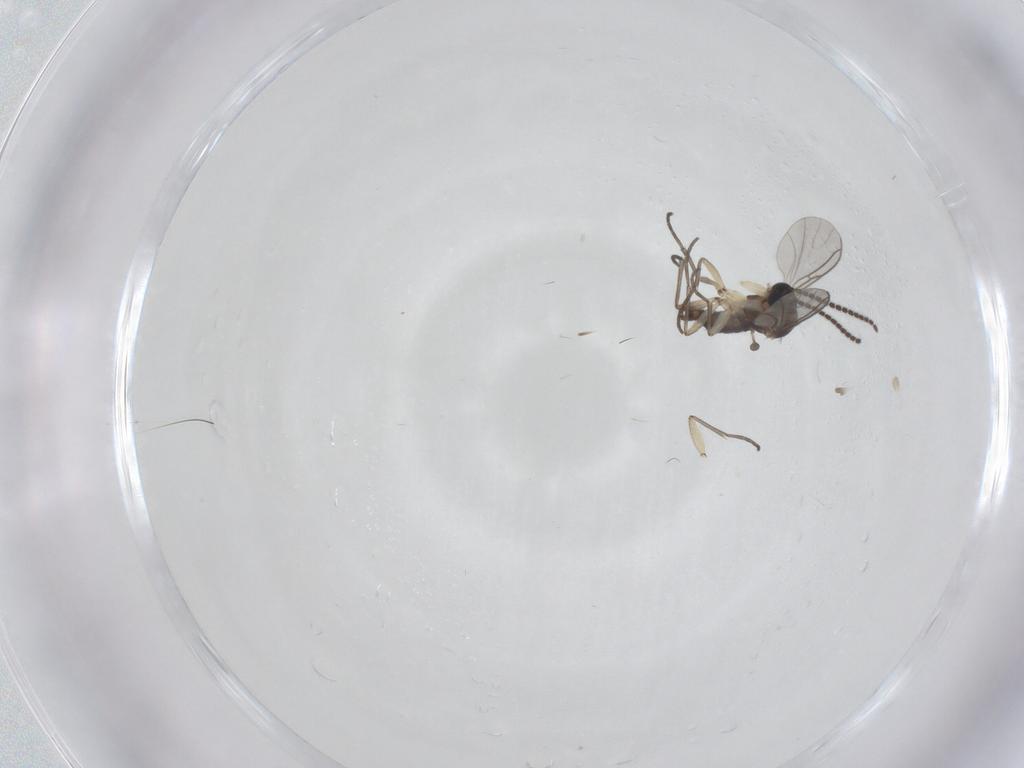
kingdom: Animalia
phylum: Arthropoda
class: Insecta
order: Diptera
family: Sciaridae
